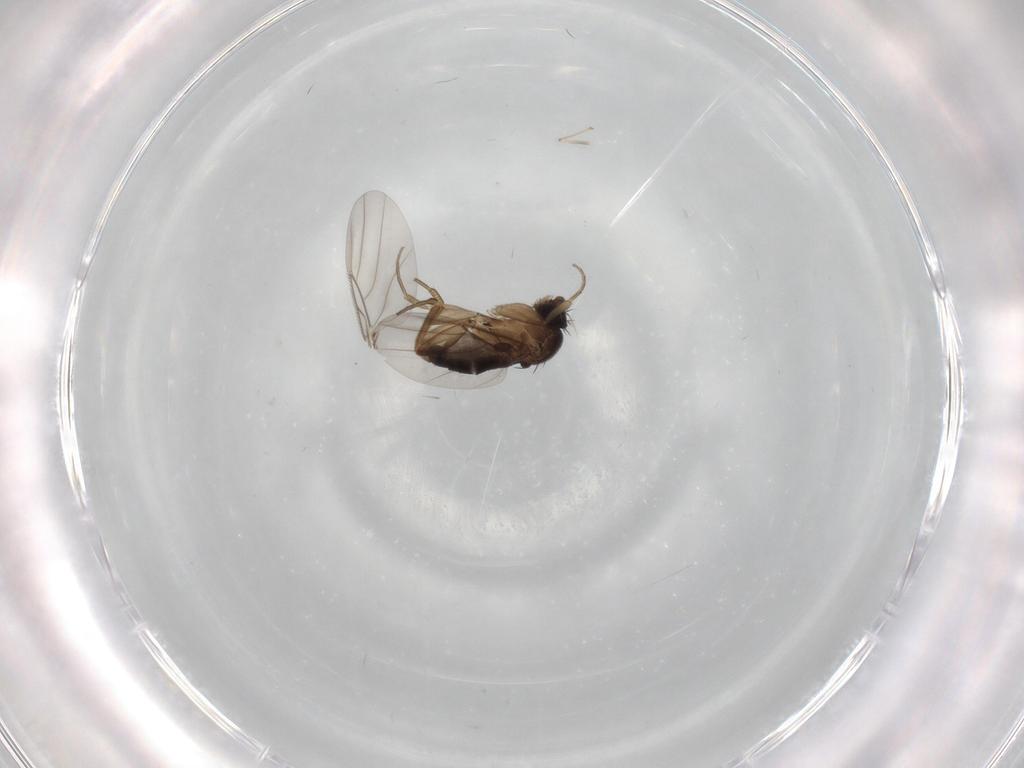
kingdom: Animalia
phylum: Arthropoda
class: Insecta
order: Diptera
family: Phoridae
